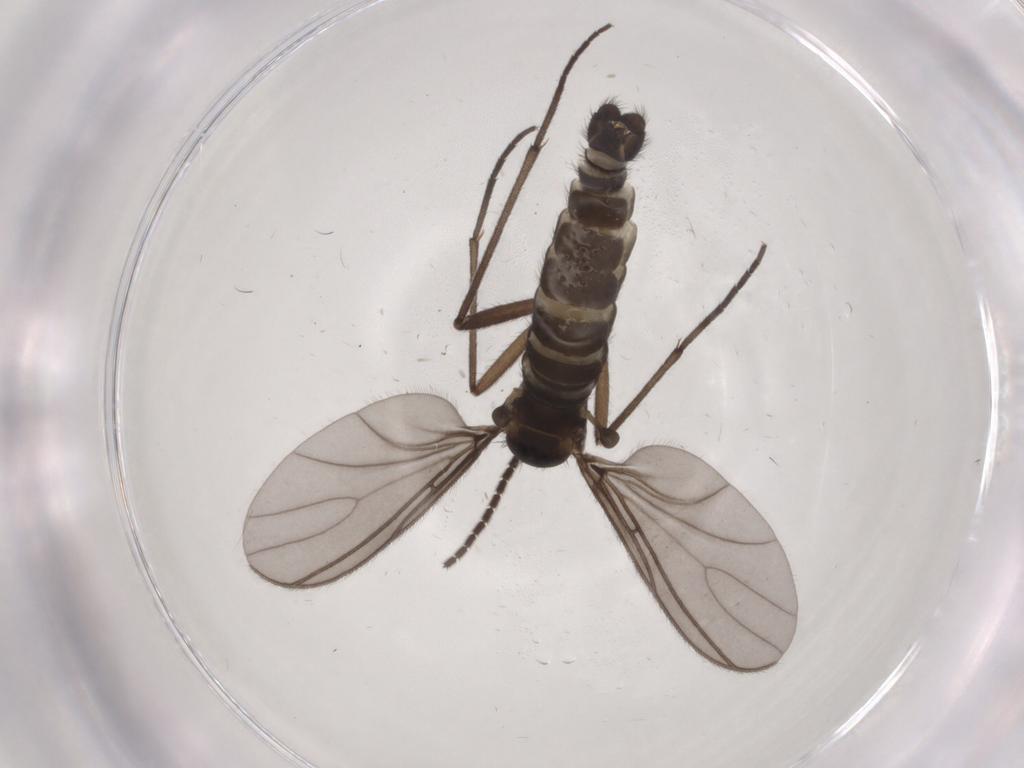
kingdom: Animalia
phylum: Arthropoda
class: Insecta
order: Diptera
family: Sciaridae
